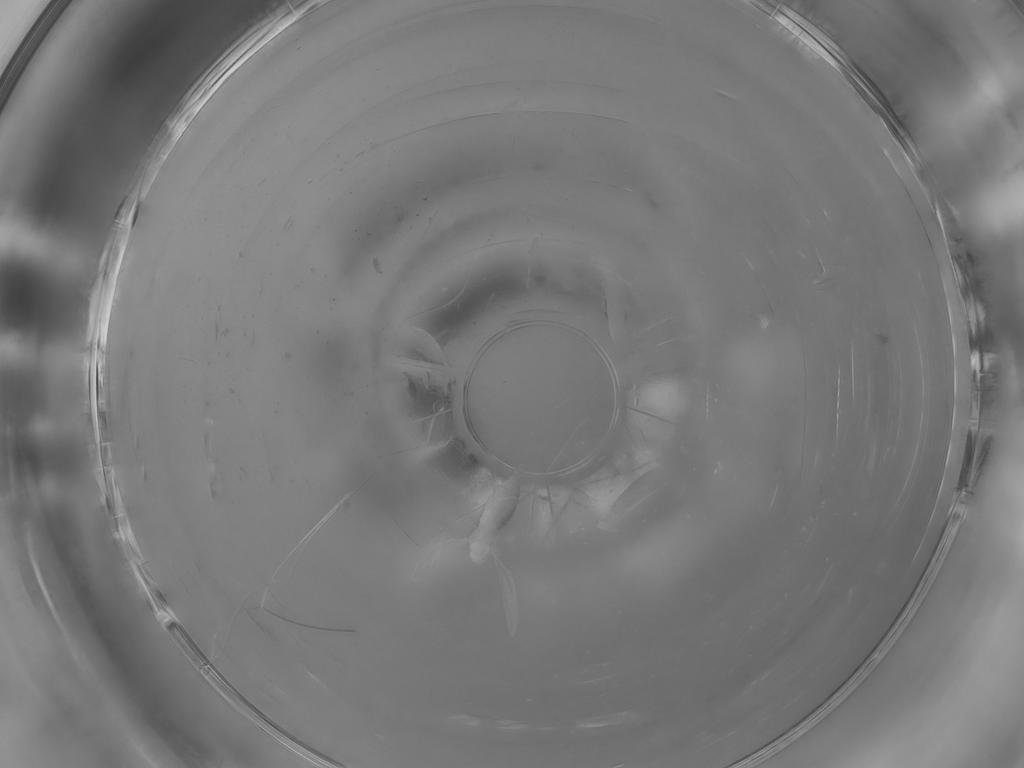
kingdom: Animalia
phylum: Arthropoda
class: Insecta
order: Diptera
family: Cecidomyiidae
